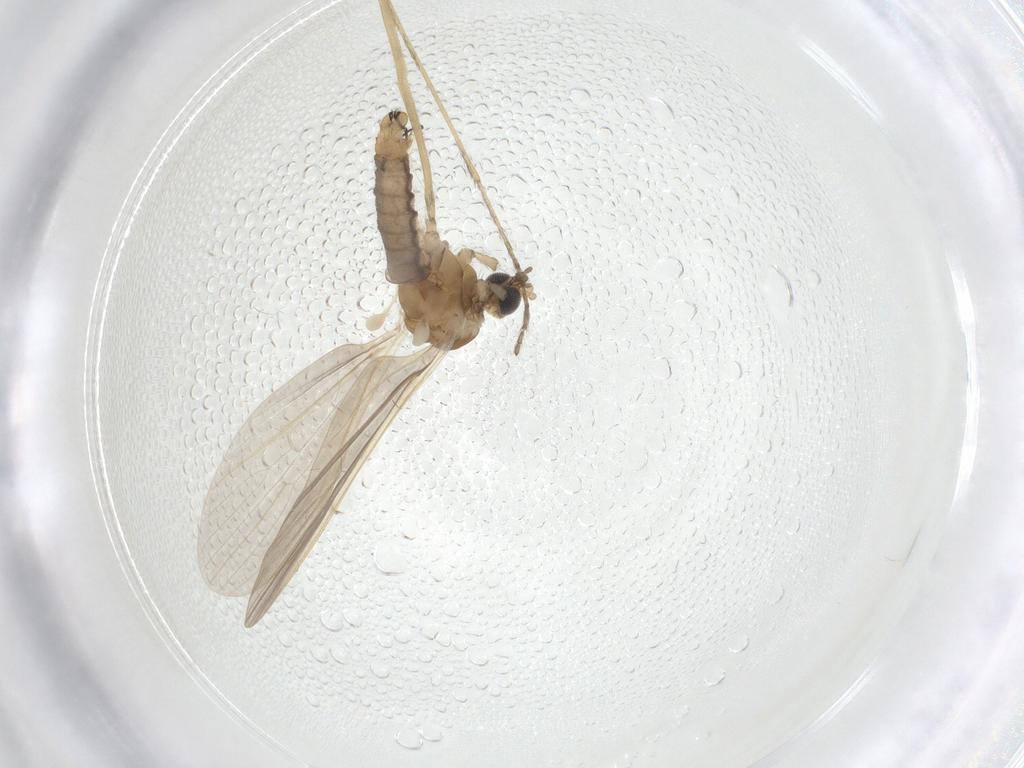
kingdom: Animalia
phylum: Arthropoda
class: Insecta
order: Diptera
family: Limoniidae
